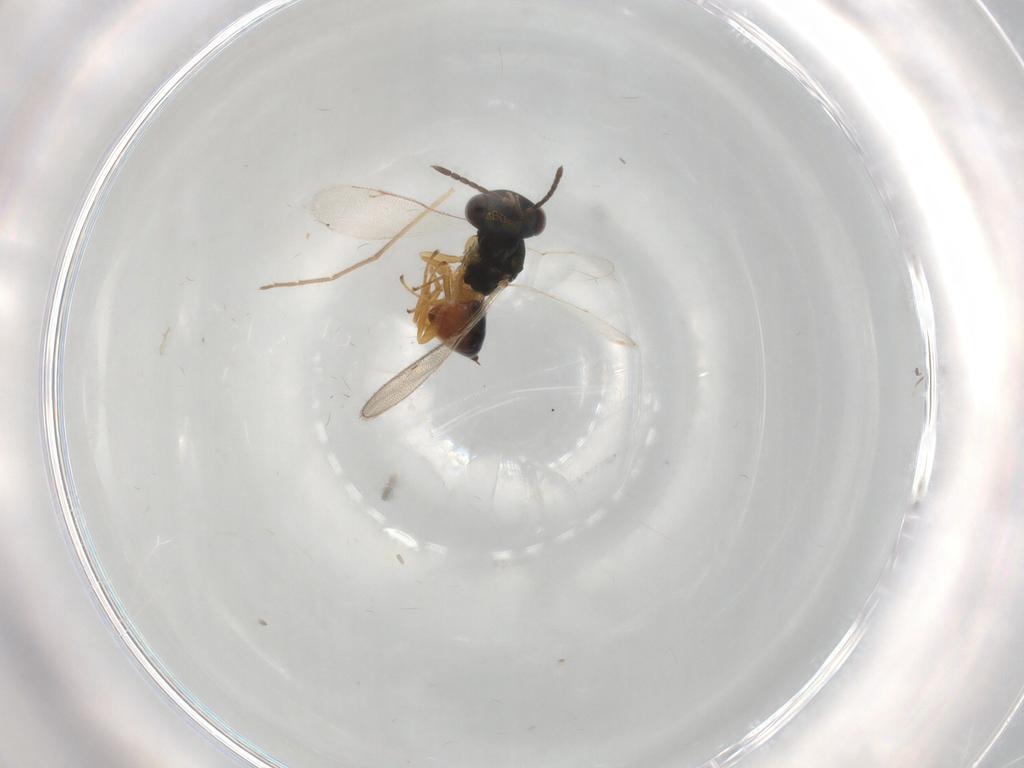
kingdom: Animalia
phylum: Arthropoda
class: Insecta
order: Hymenoptera
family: Pteromalidae
